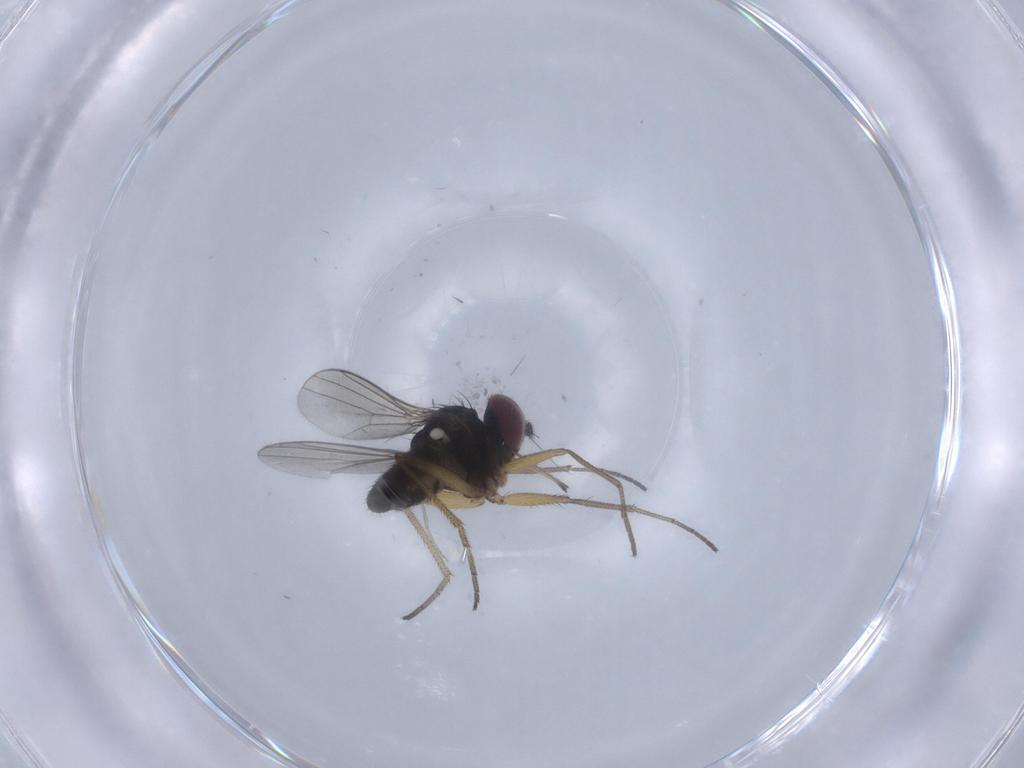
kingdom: Animalia
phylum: Arthropoda
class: Insecta
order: Diptera
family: Dolichopodidae
